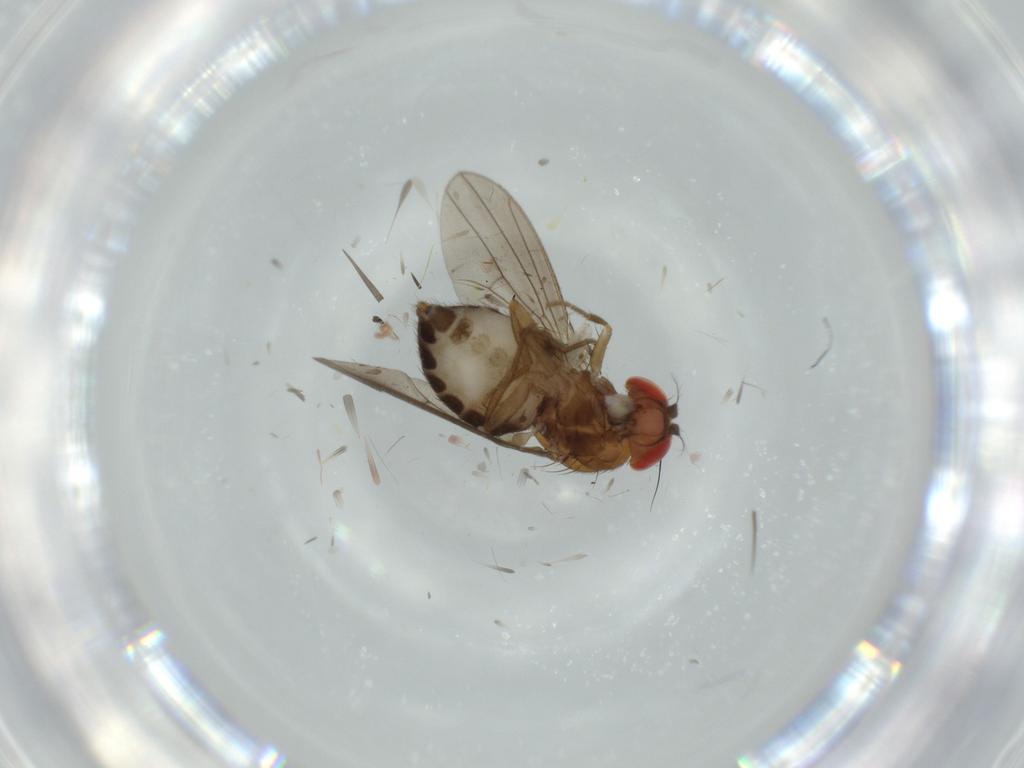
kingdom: Animalia
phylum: Arthropoda
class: Insecta
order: Diptera
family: Drosophilidae
